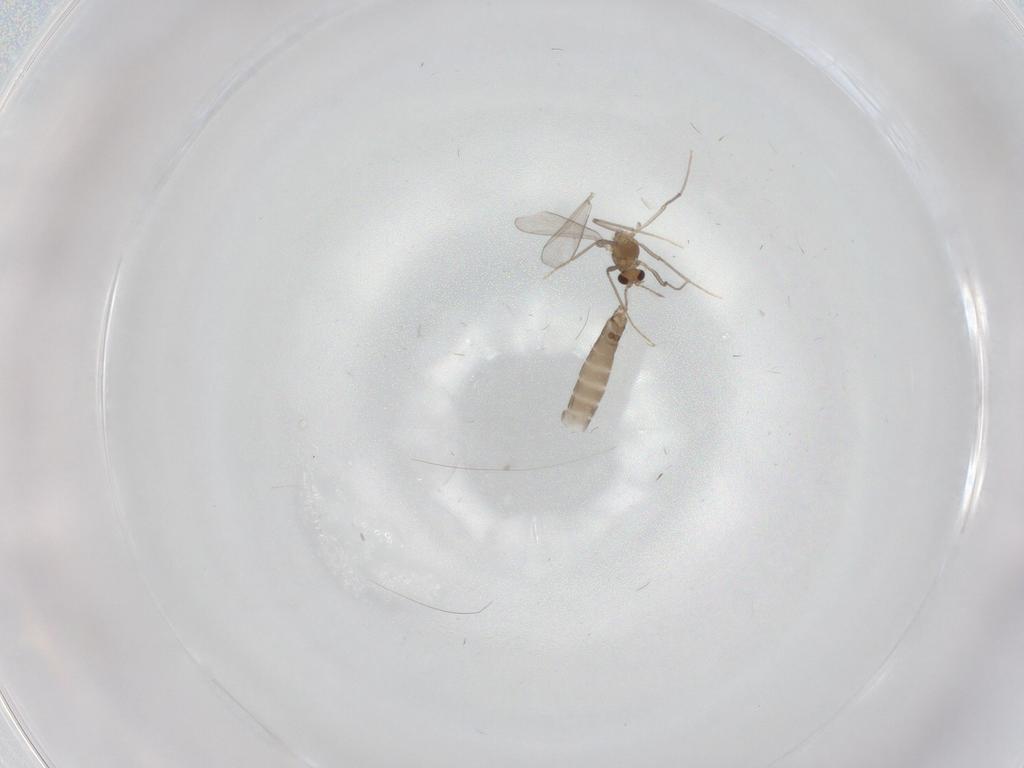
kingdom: Animalia
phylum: Arthropoda
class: Insecta
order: Diptera
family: Chironomidae
